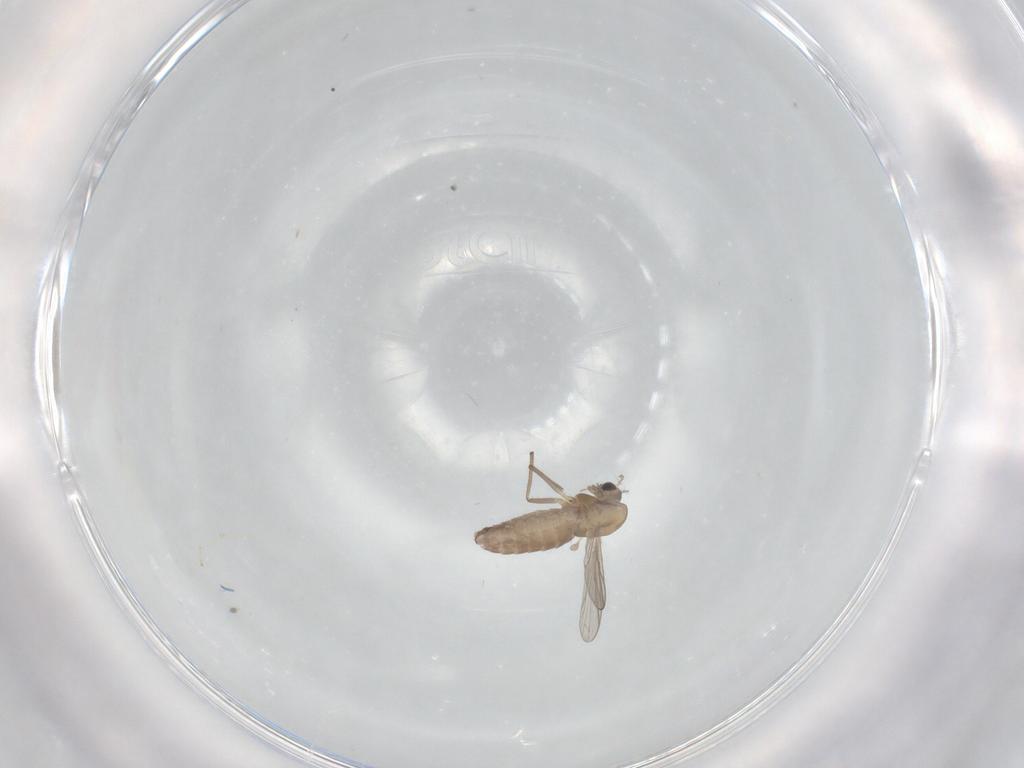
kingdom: Animalia
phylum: Arthropoda
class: Insecta
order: Diptera
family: Chironomidae
